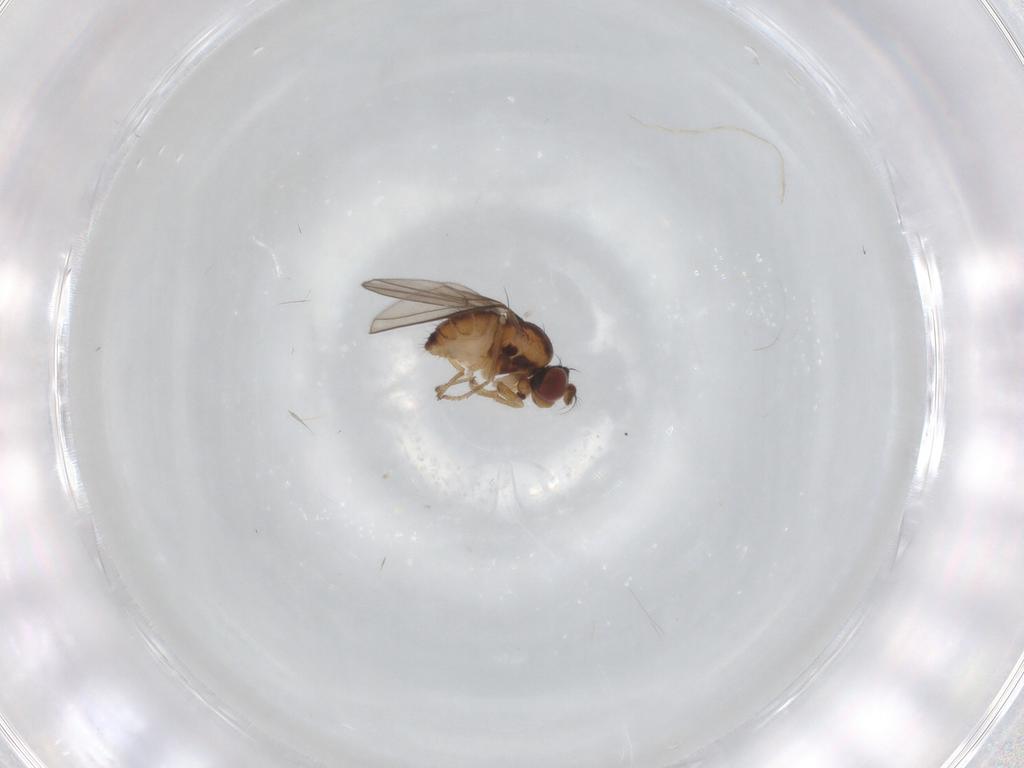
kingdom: Animalia
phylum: Arthropoda
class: Insecta
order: Diptera
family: Ephydridae
